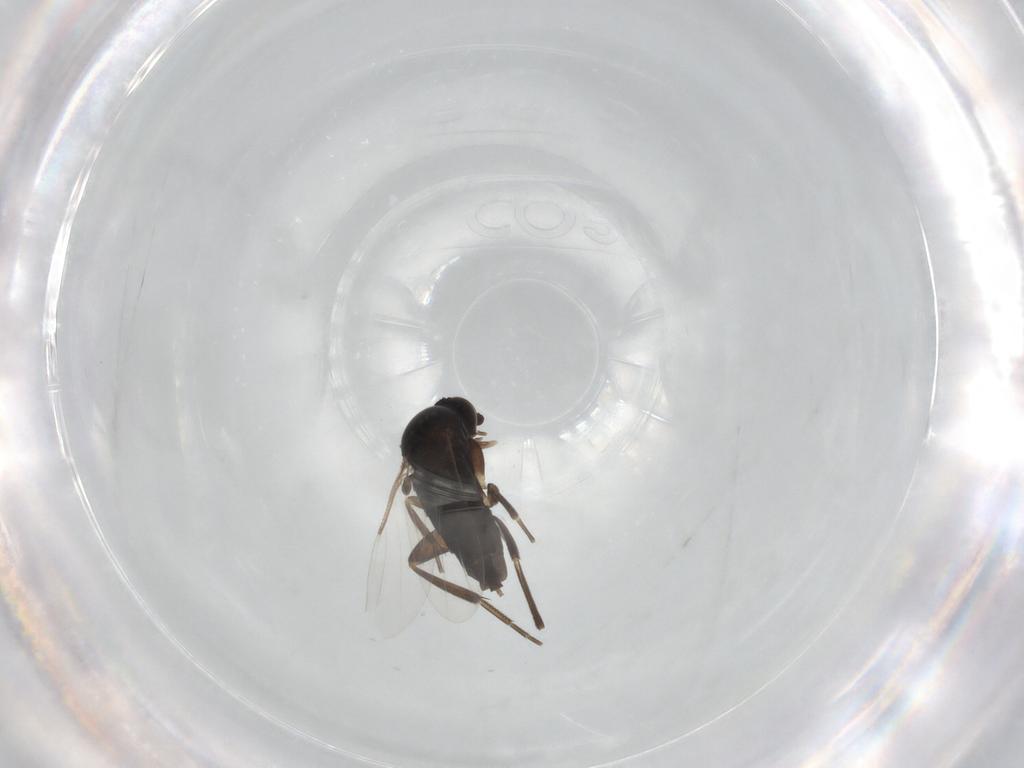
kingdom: Animalia
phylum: Arthropoda
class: Insecta
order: Diptera
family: Phoridae
